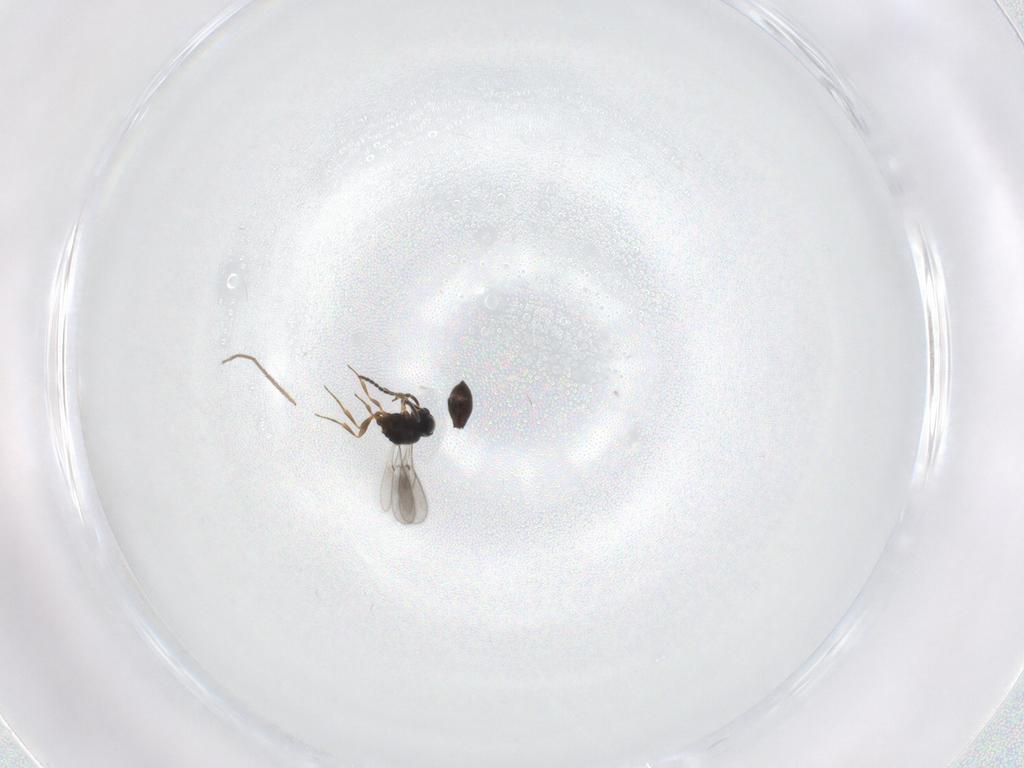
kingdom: Animalia
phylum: Arthropoda
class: Insecta
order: Hymenoptera
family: Scelionidae
